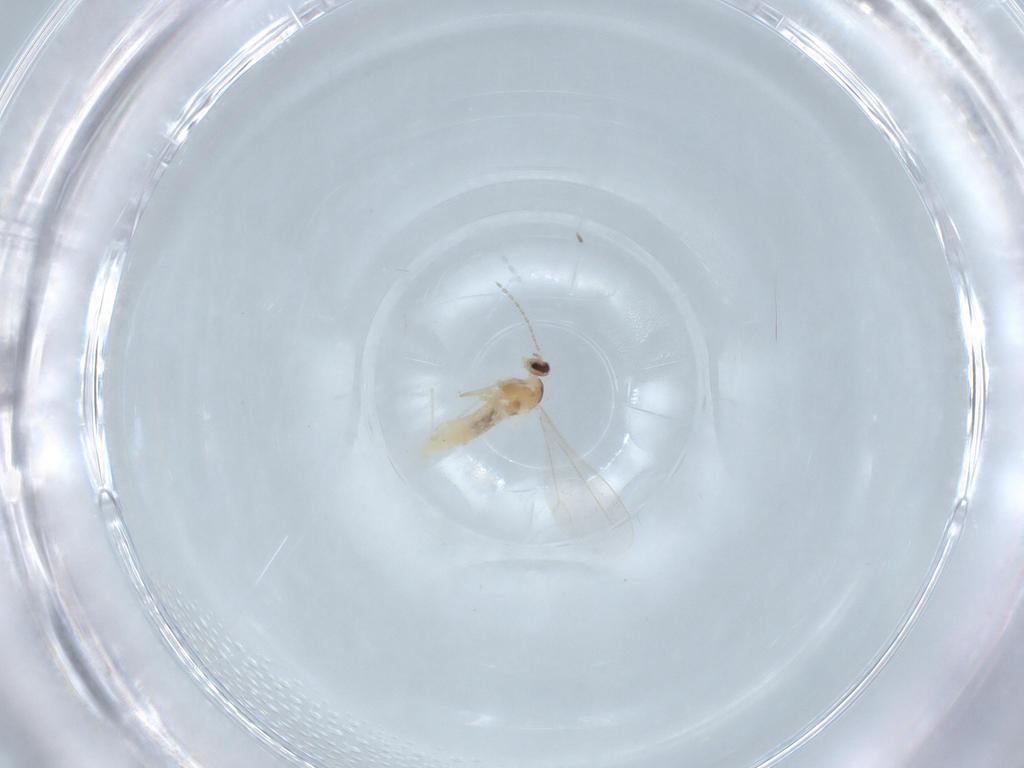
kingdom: Animalia
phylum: Arthropoda
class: Insecta
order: Diptera
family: Cecidomyiidae
